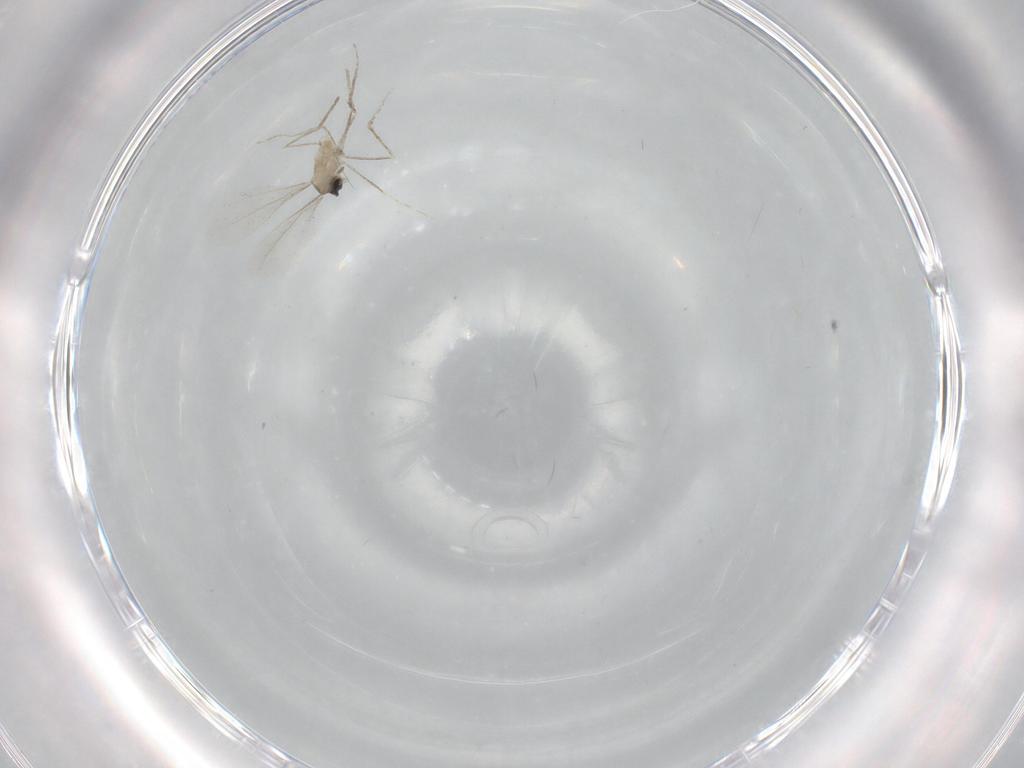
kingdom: Animalia
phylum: Arthropoda
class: Insecta
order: Diptera
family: Cecidomyiidae
